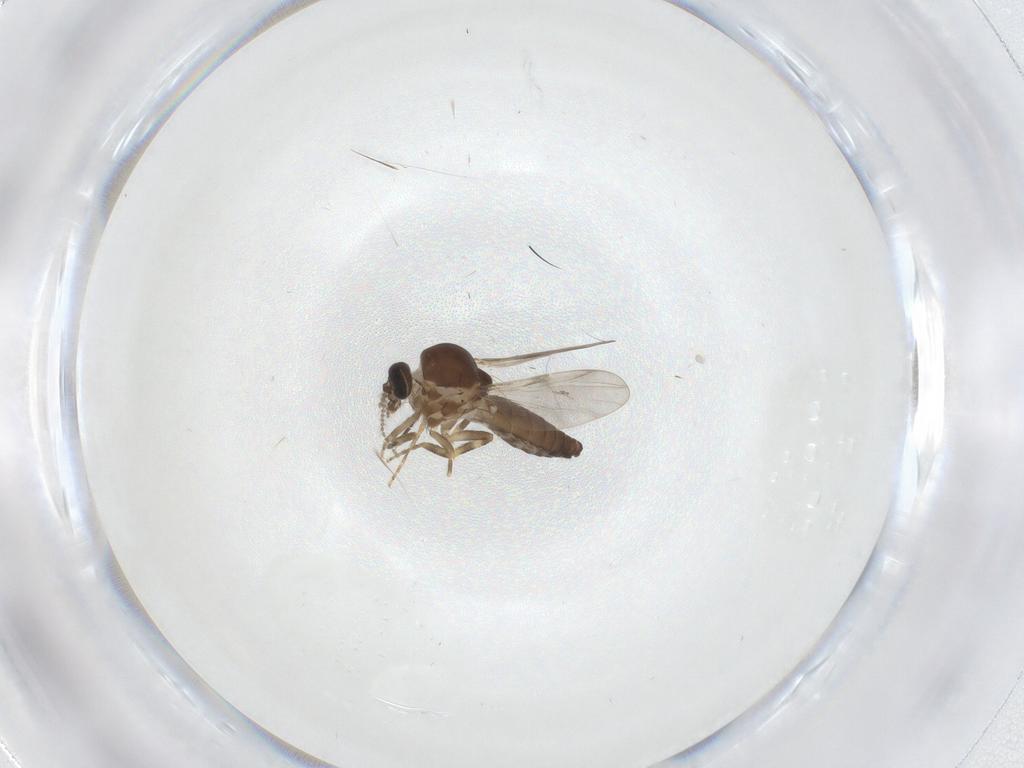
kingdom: Animalia
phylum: Arthropoda
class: Insecta
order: Diptera
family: Ceratopogonidae
